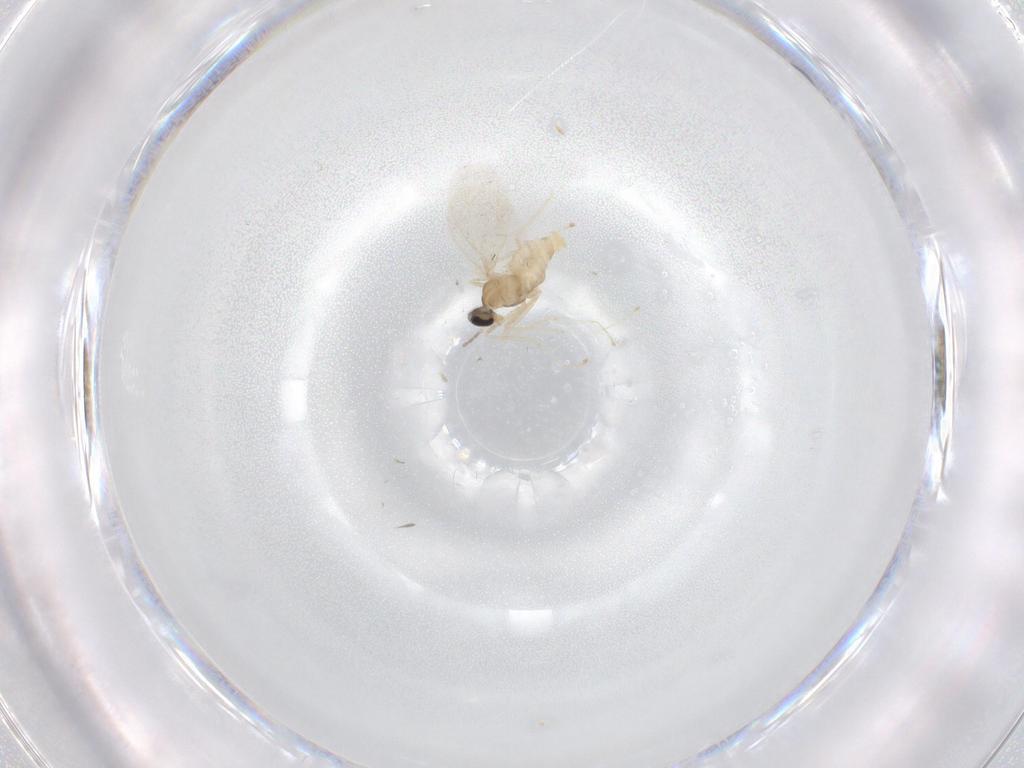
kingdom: Animalia
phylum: Arthropoda
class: Insecta
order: Diptera
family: Cecidomyiidae
